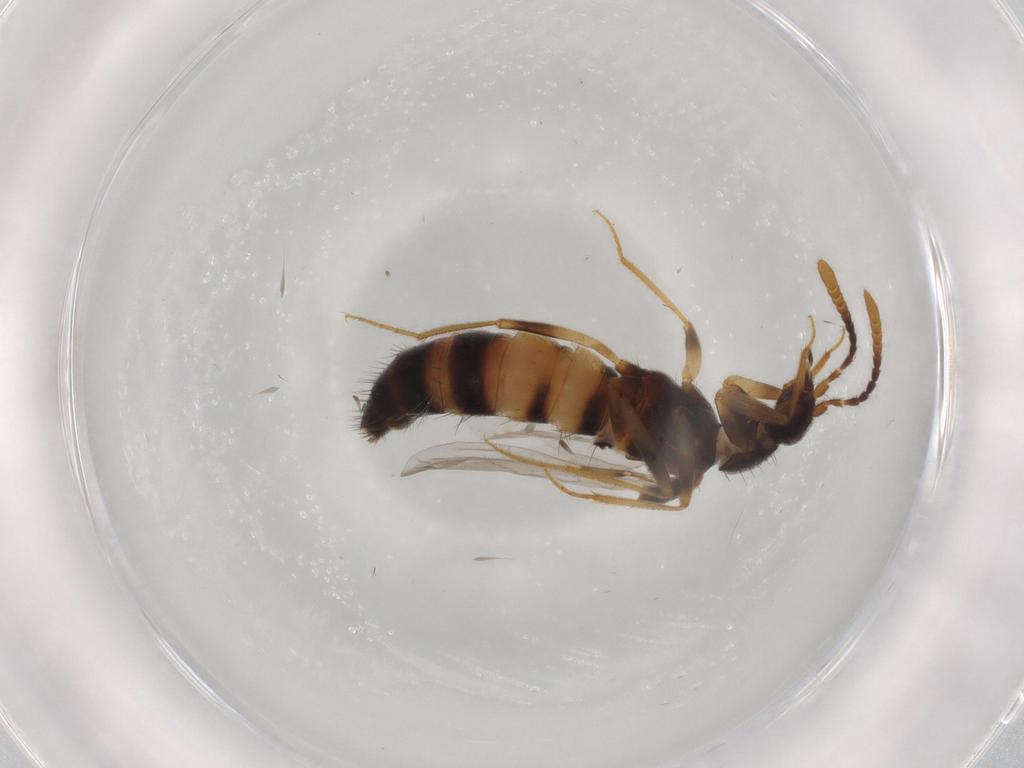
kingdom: Animalia
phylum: Arthropoda
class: Insecta
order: Coleoptera
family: Staphylinidae
